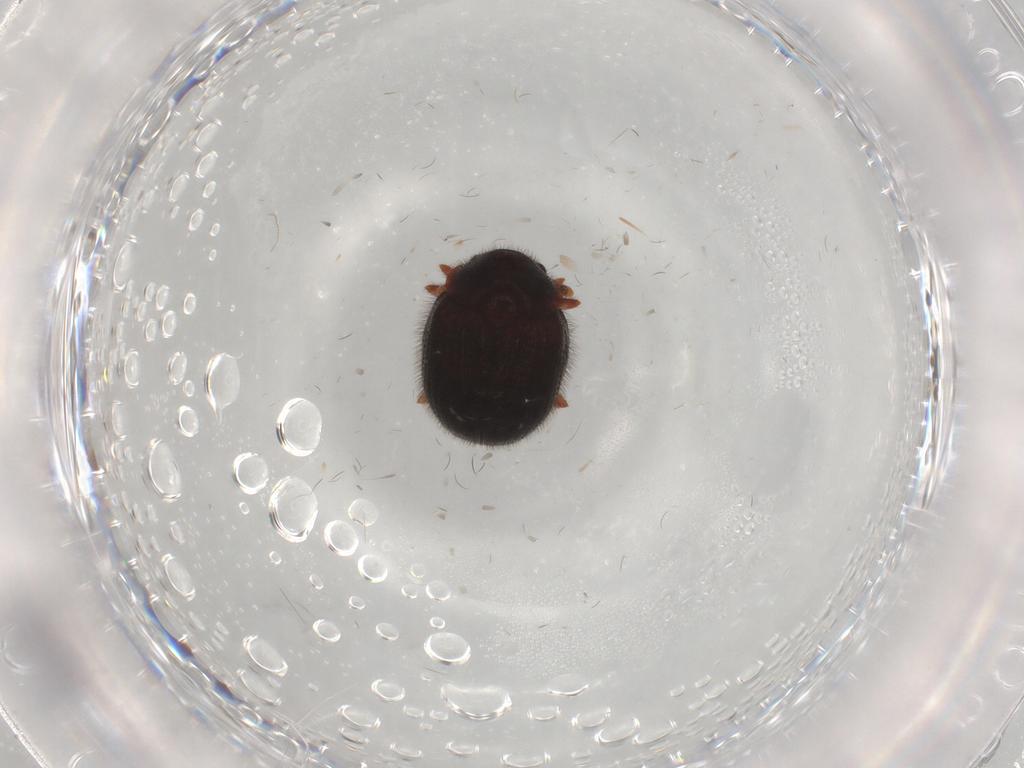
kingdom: Animalia
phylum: Arthropoda
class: Insecta
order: Coleoptera
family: Sphindidae
